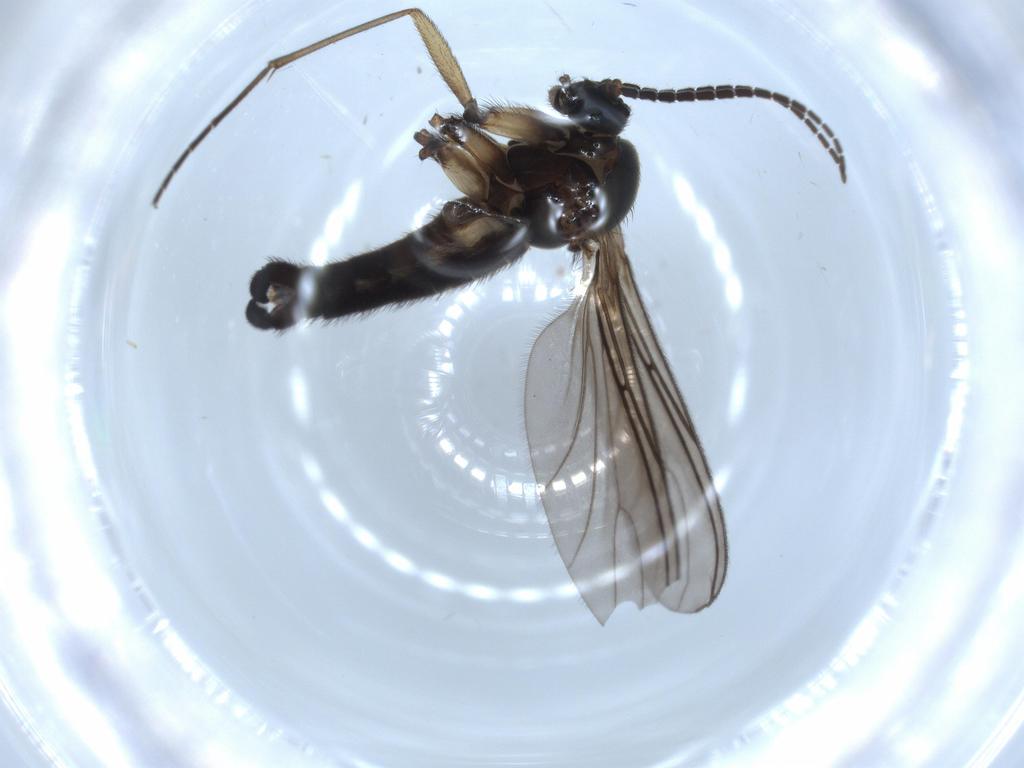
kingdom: Animalia
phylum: Arthropoda
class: Insecta
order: Diptera
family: Sciaridae
